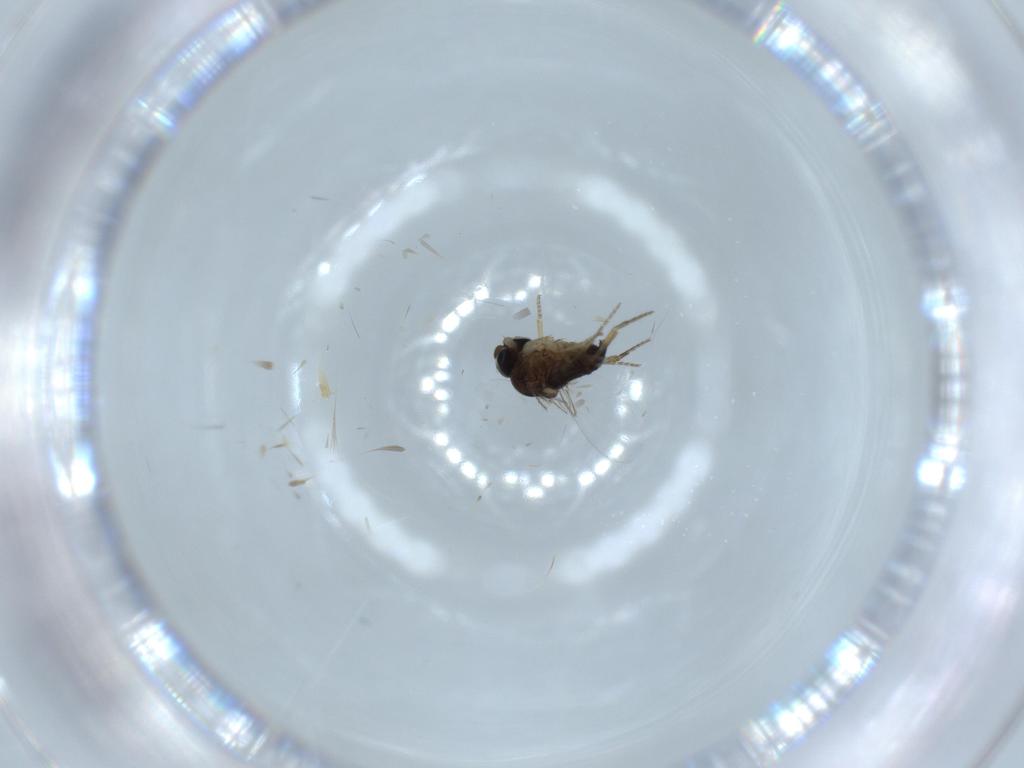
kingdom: Animalia
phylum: Arthropoda
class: Insecta
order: Diptera
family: Phoridae
